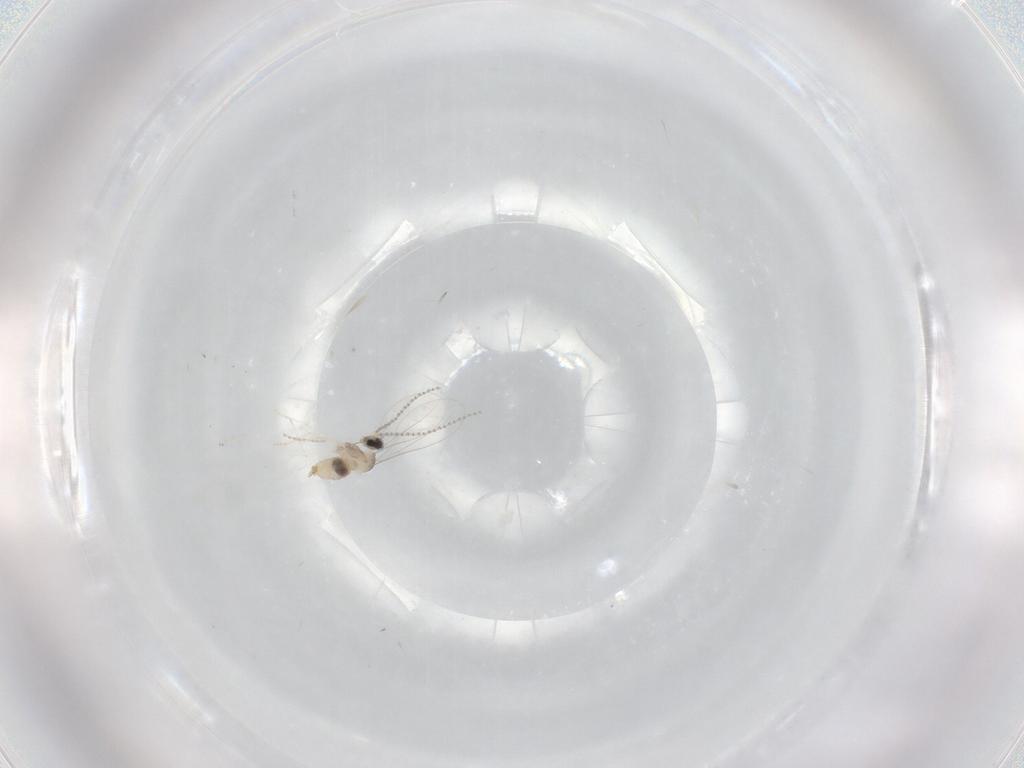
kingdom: Animalia
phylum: Arthropoda
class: Insecta
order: Diptera
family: Cecidomyiidae
